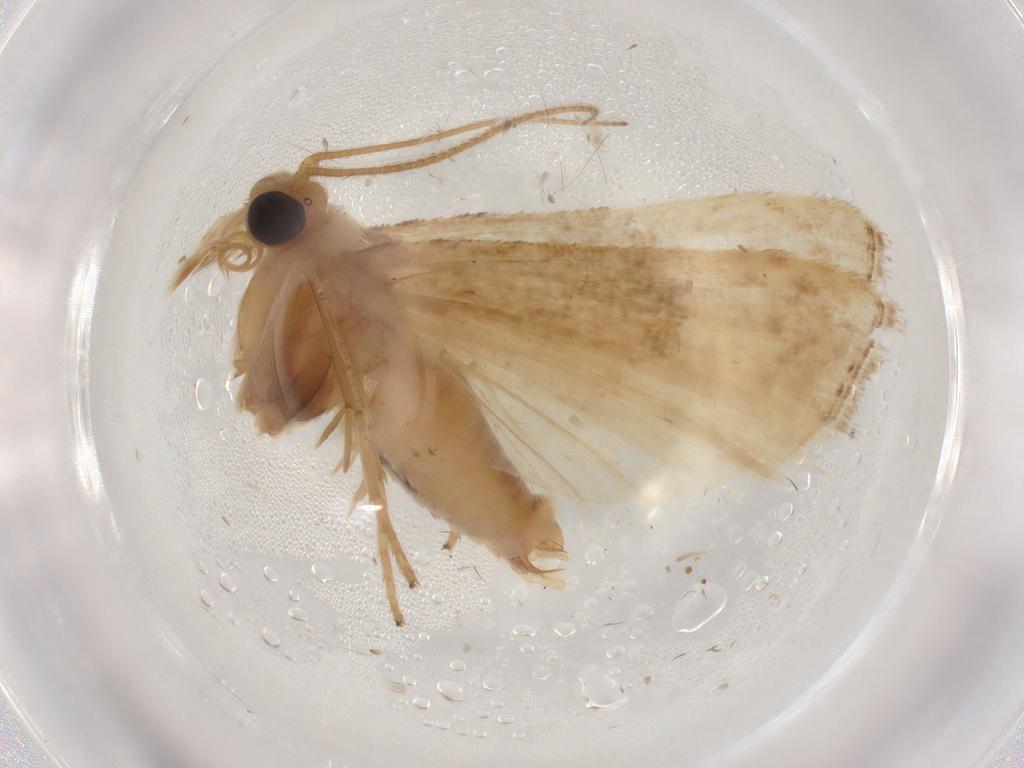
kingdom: Animalia
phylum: Arthropoda
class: Insecta
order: Lepidoptera
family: Pyralidae
